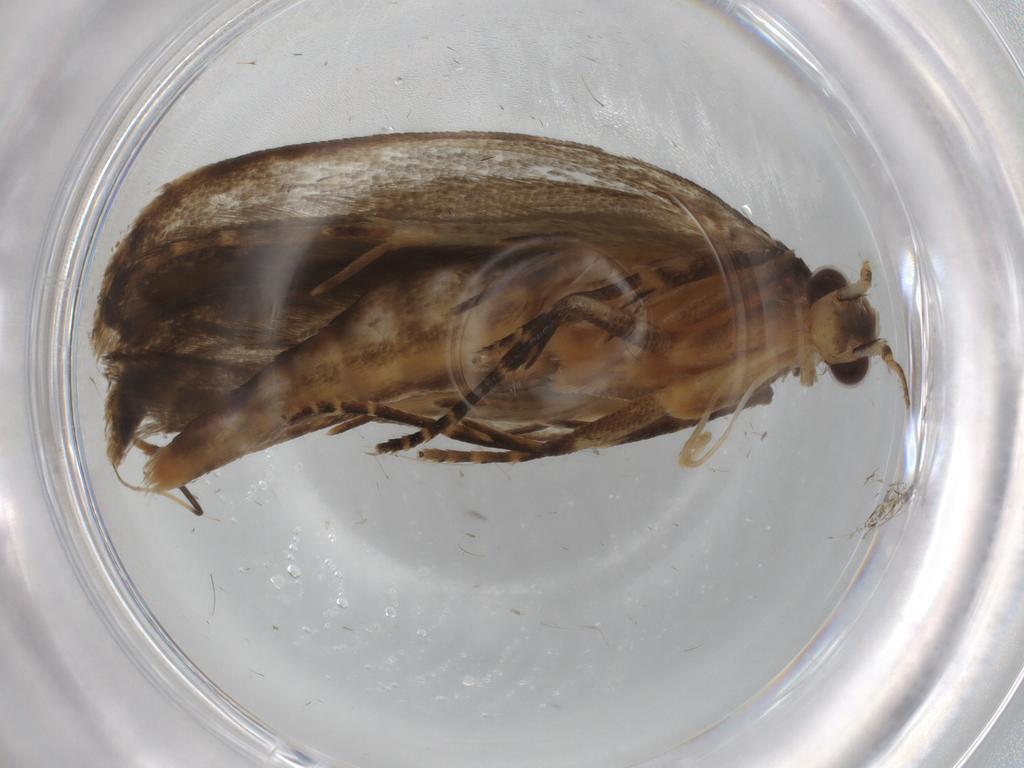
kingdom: Animalia
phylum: Arthropoda
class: Insecta
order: Lepidoptera
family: Gelechiidae
